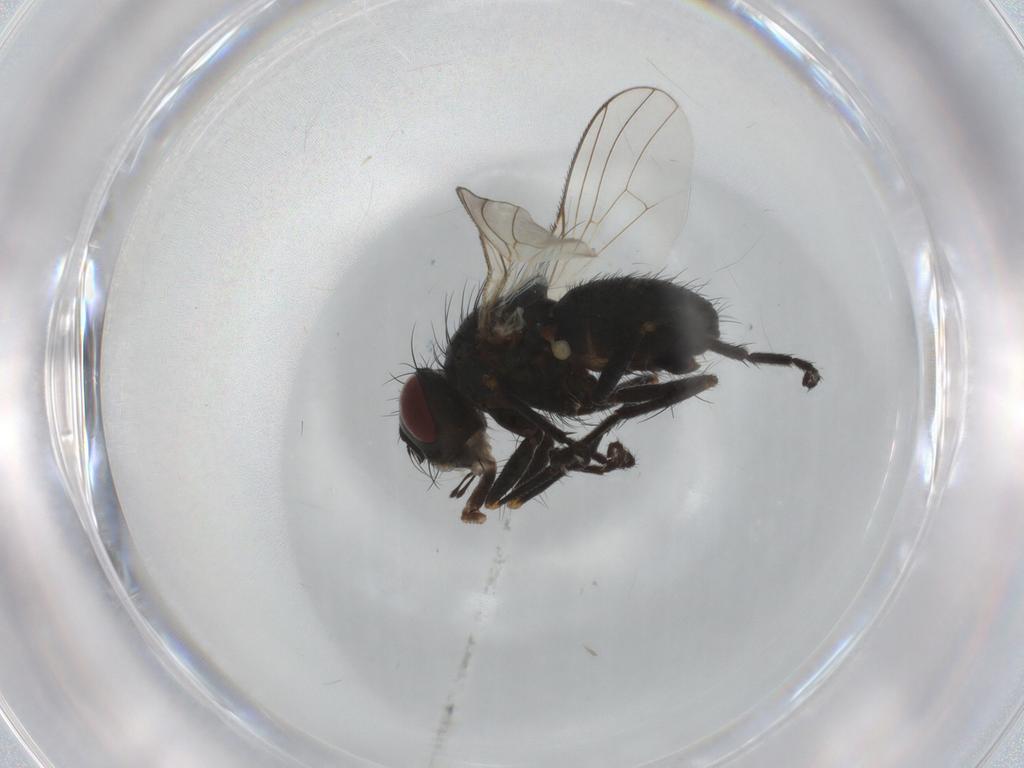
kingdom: Animalia
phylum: Arthropoda
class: Insecta
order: Diptera
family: Muscidae
